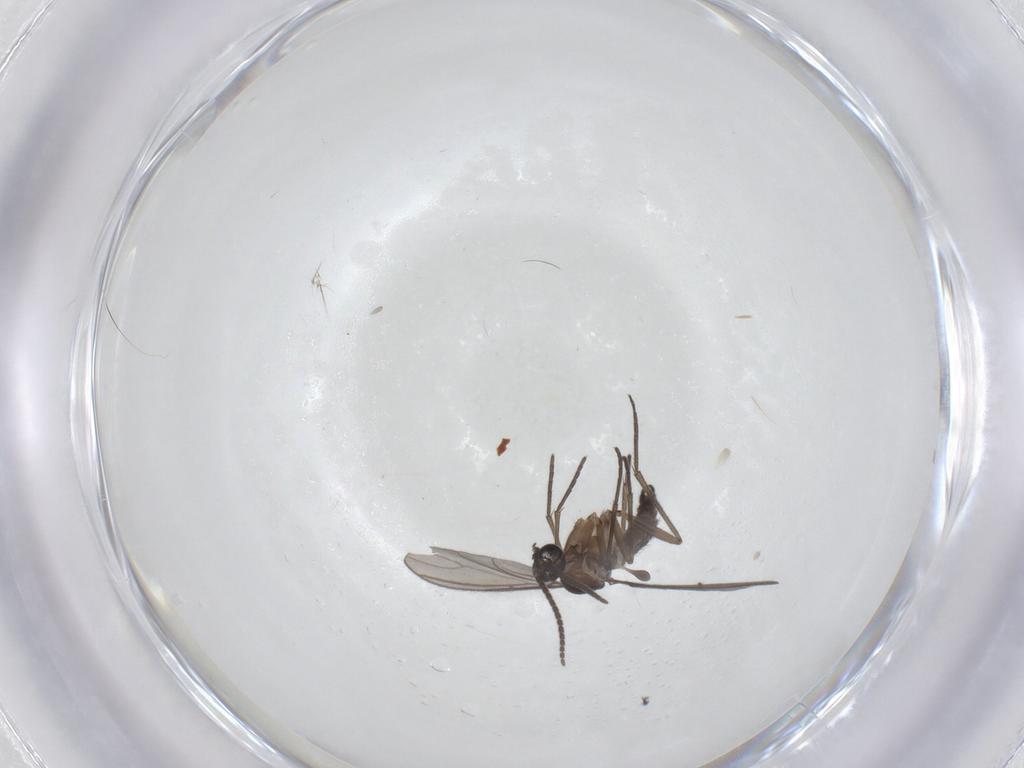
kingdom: Animalia
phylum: Arthropoda
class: Insecta
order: Diptera
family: Sciaridae
